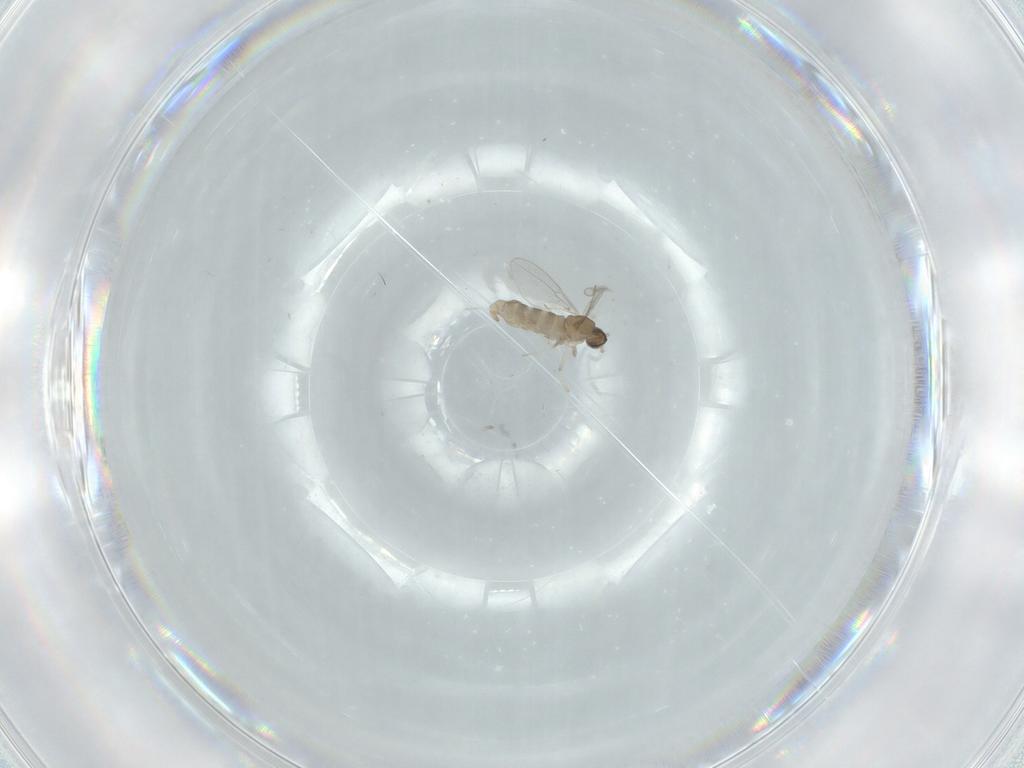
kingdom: Animalia
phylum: Arthropoda
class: Insecta
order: Diptera
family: Cecidomyiidae
